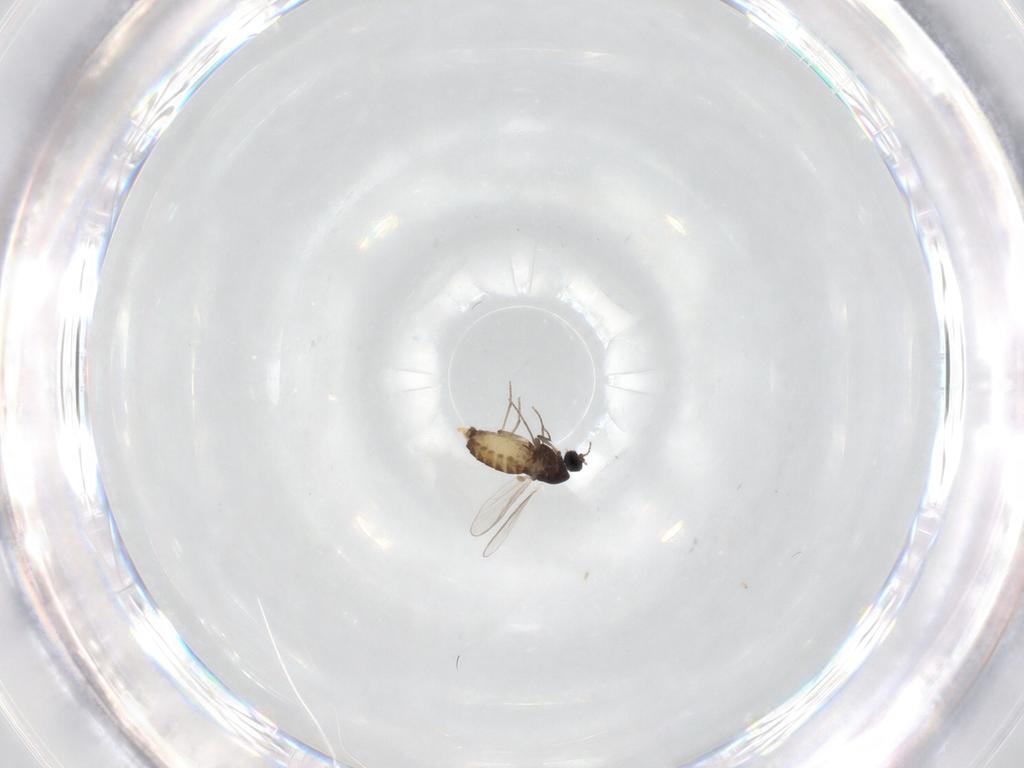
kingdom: Animalia
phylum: Arthropoda
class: Insecta
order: Diptera
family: Chironomidae
